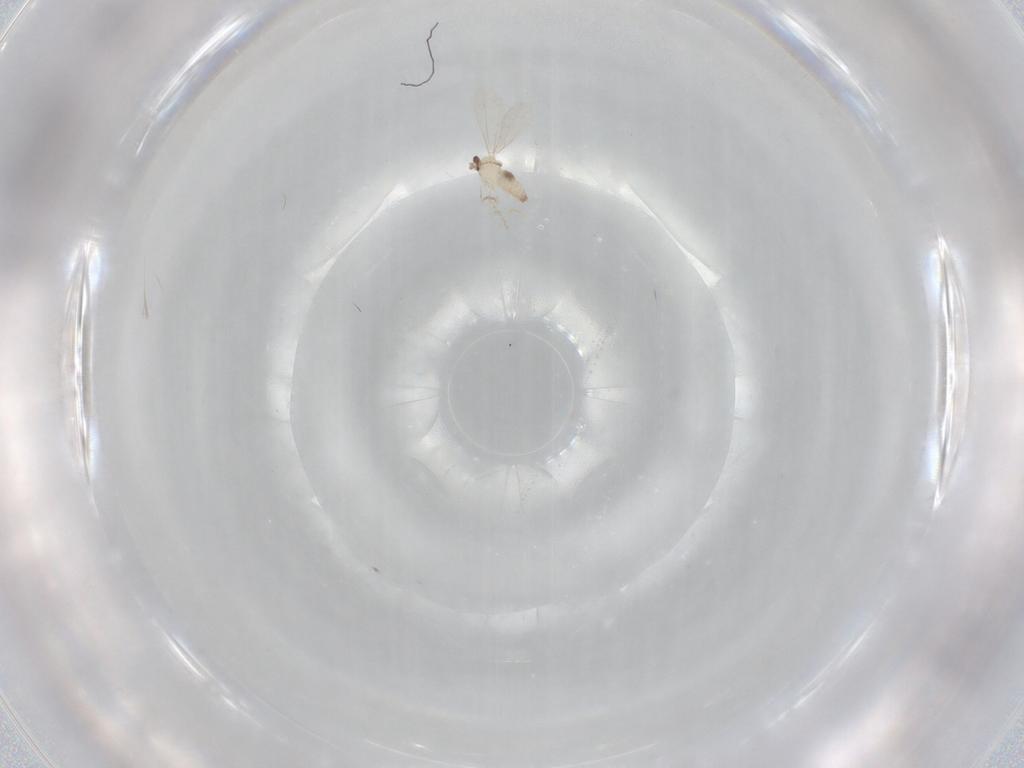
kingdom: Animalia
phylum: Arthropoda
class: Insecta
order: Diptera
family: Cecidomyiidae
